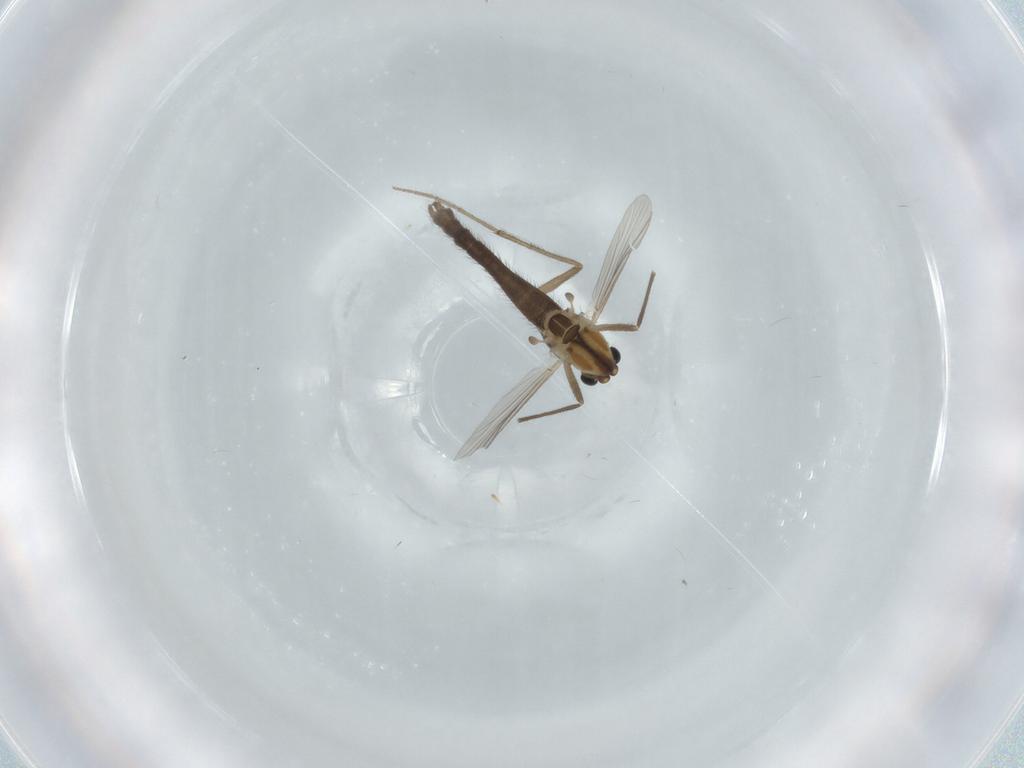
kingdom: Animalia
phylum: Arthropoda
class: Insecta
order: Diptera
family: Chironomidae
